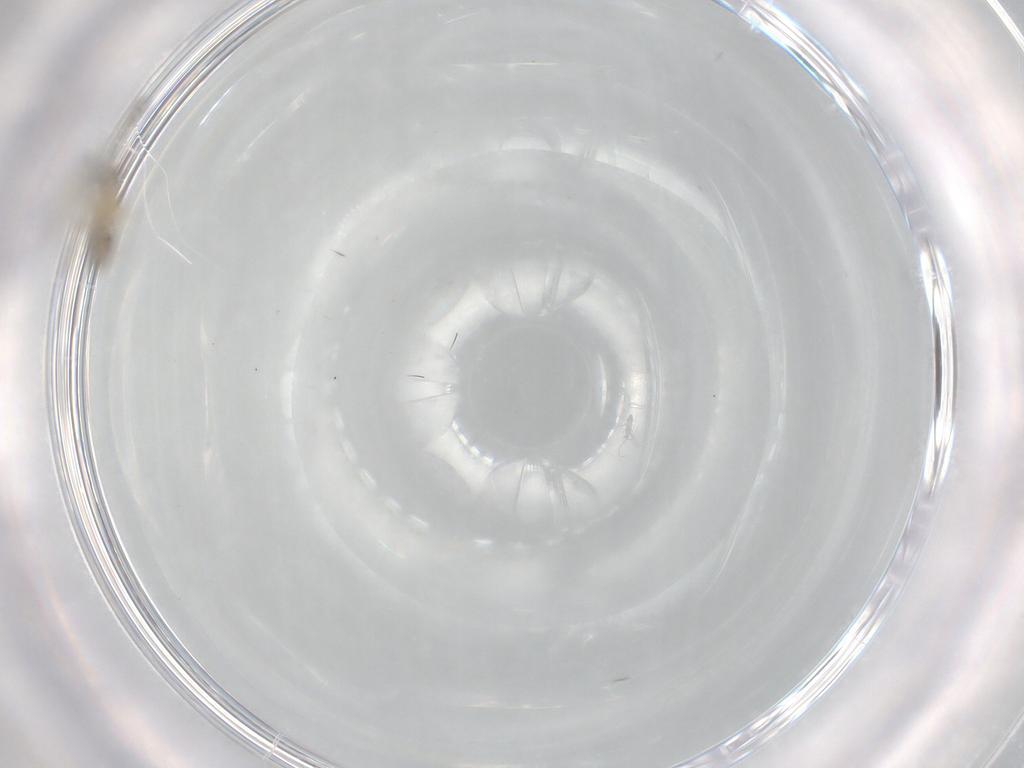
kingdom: Animalia
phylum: Arthropoda
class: Insecta
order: Diptera
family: Cecidomyiidae
